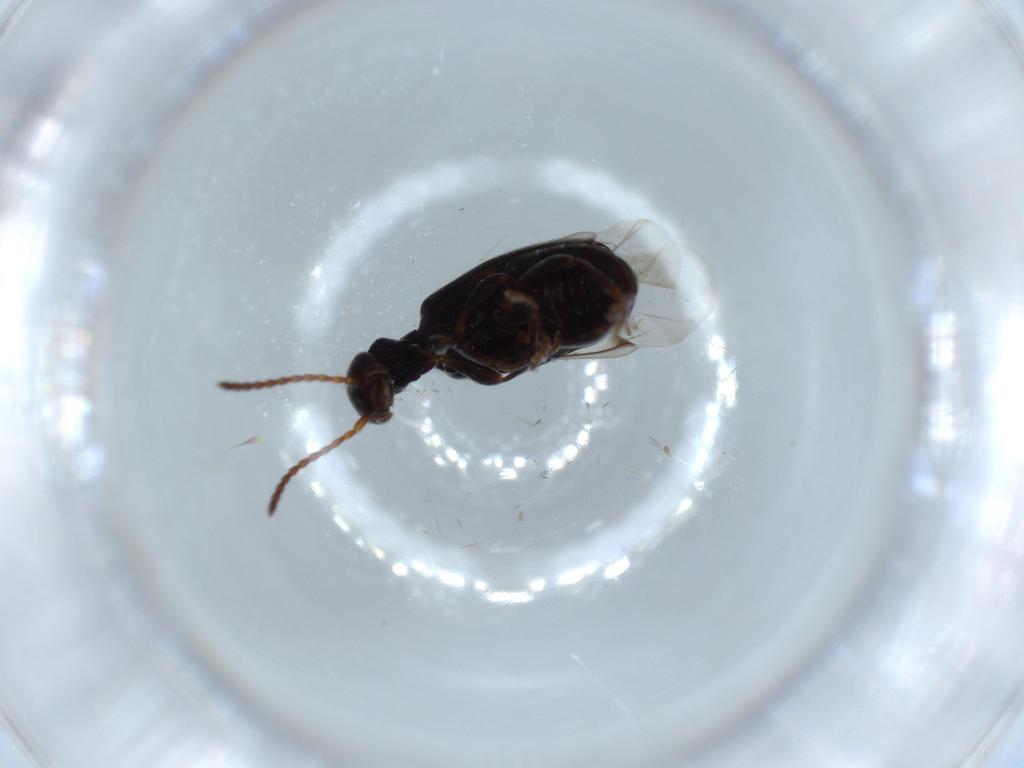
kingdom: Animalia
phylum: Arthropoda
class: Insecta
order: Coleoptera
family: Anthicidae
